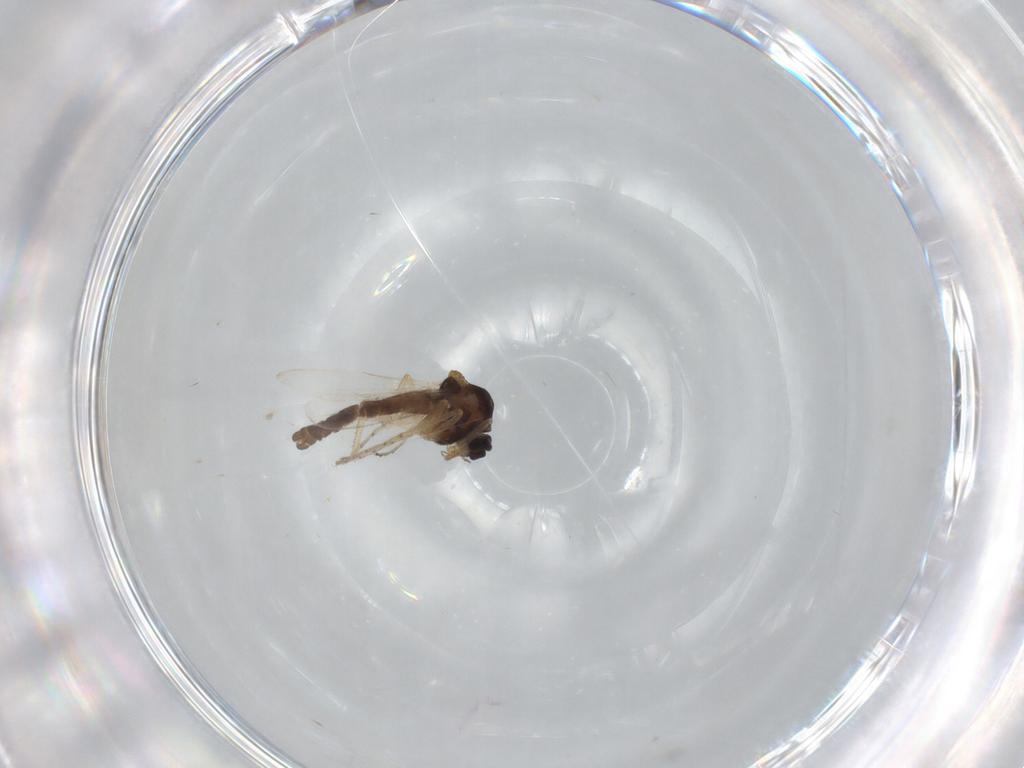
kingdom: Animalia
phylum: Arthropoda
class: Insecta
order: Diptera
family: Ceratopogonidae
